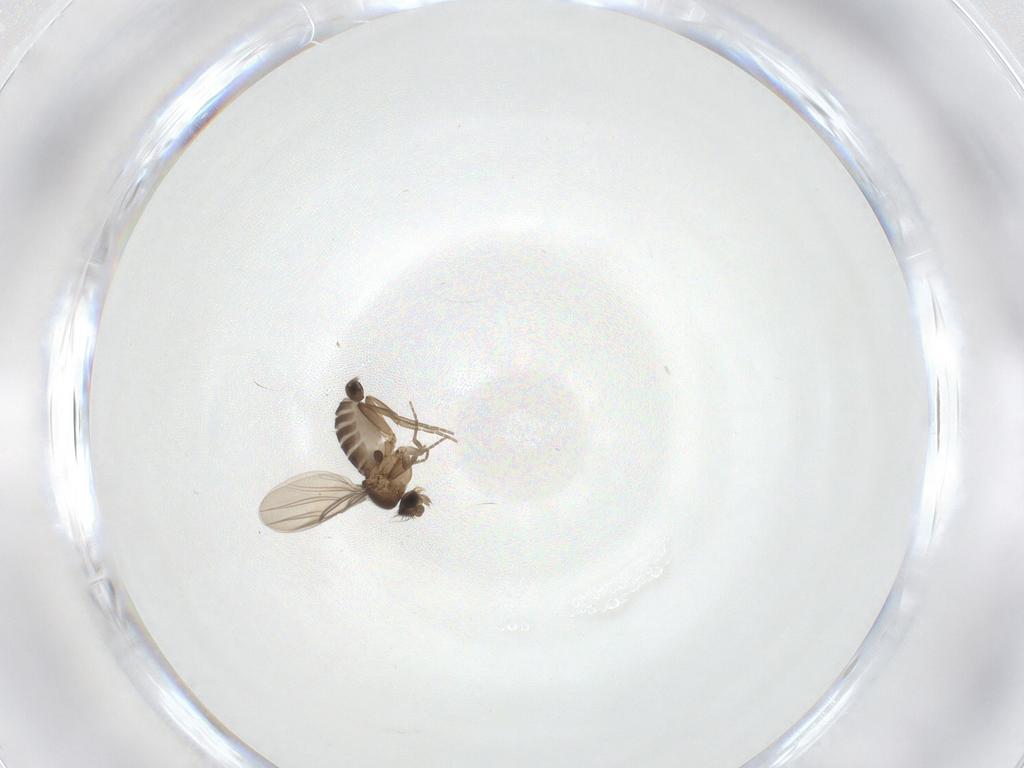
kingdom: Animalia
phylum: Arthropoda
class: Insecta
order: Diptera
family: Phoridae
